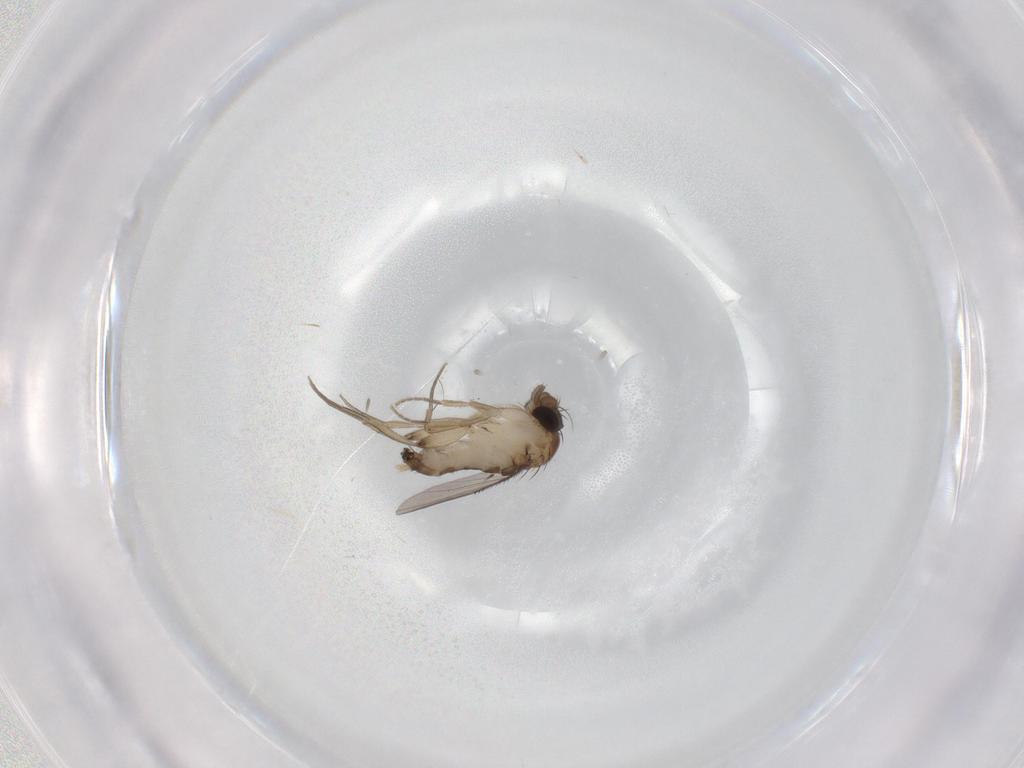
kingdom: Animalia
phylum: Arthropoda
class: Insecta
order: Diptera
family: Phoridae
